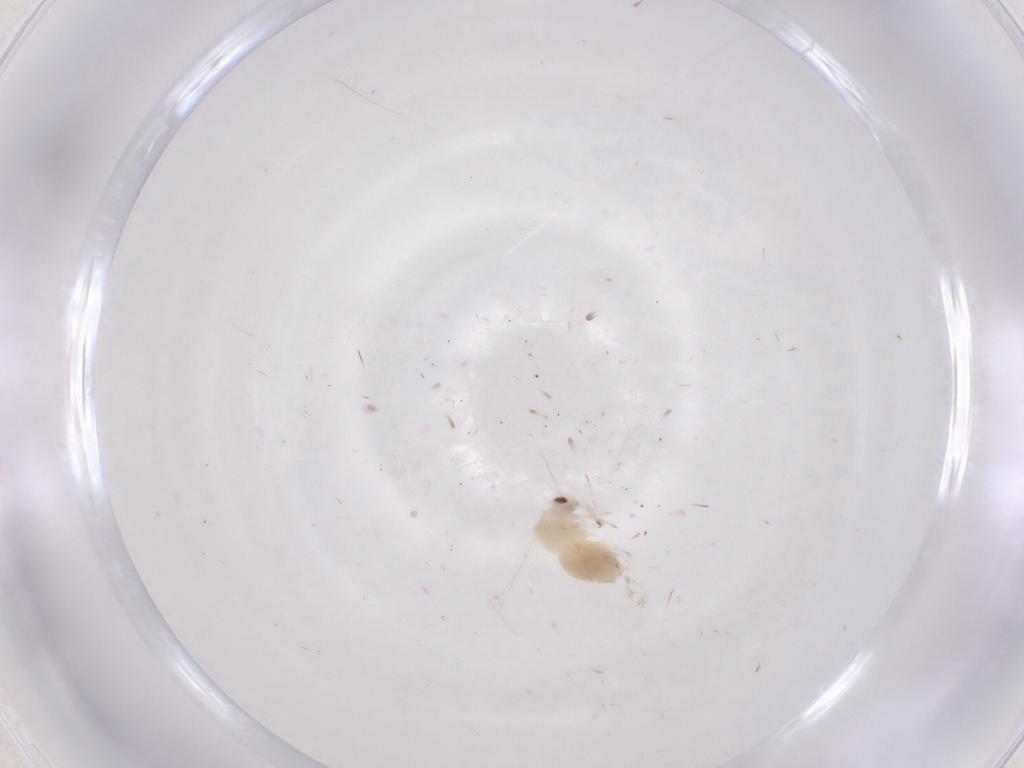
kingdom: Animalia
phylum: Arthropoda
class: Insecta
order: Hemiptera
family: Aleyrodidae
